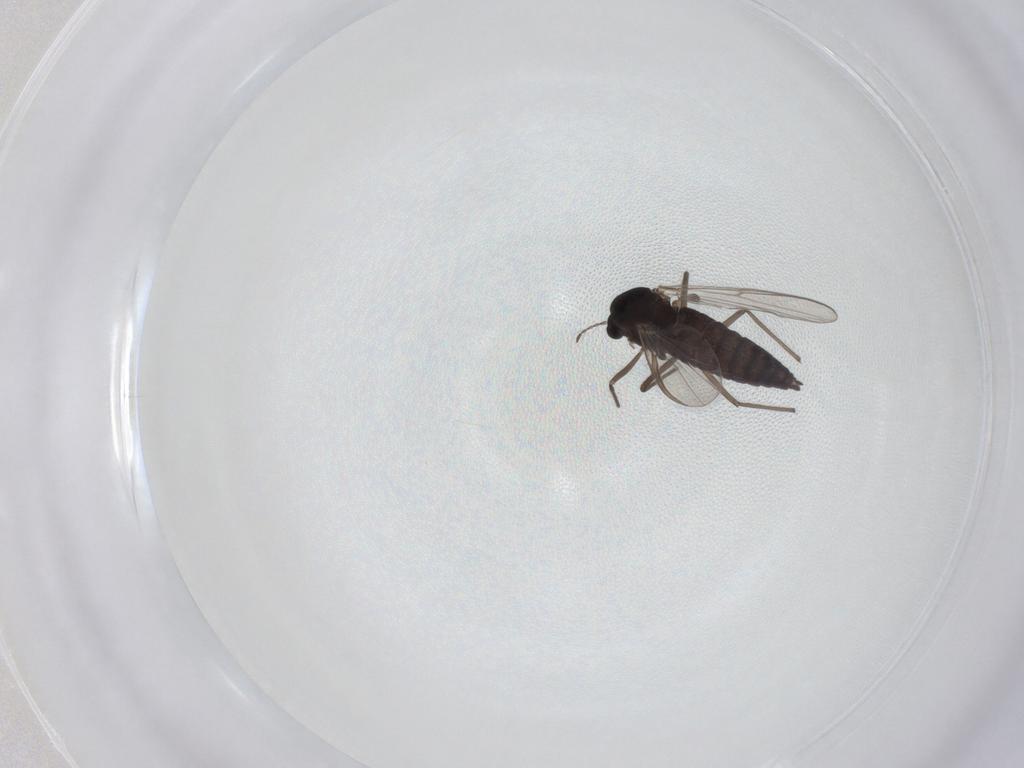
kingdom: Animalia
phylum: Arthropoda
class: Insecta
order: Diptera
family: Chironomidae
